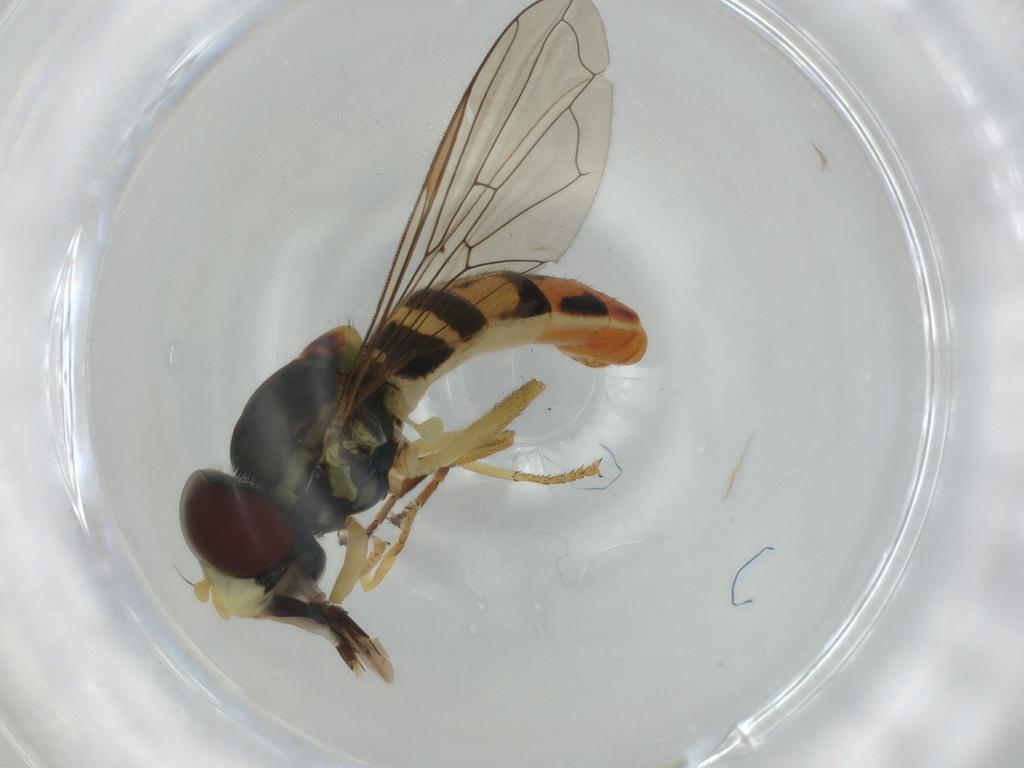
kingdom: Animalia
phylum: Arthropoda
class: Insecta
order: Diptera
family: Syrphidae
